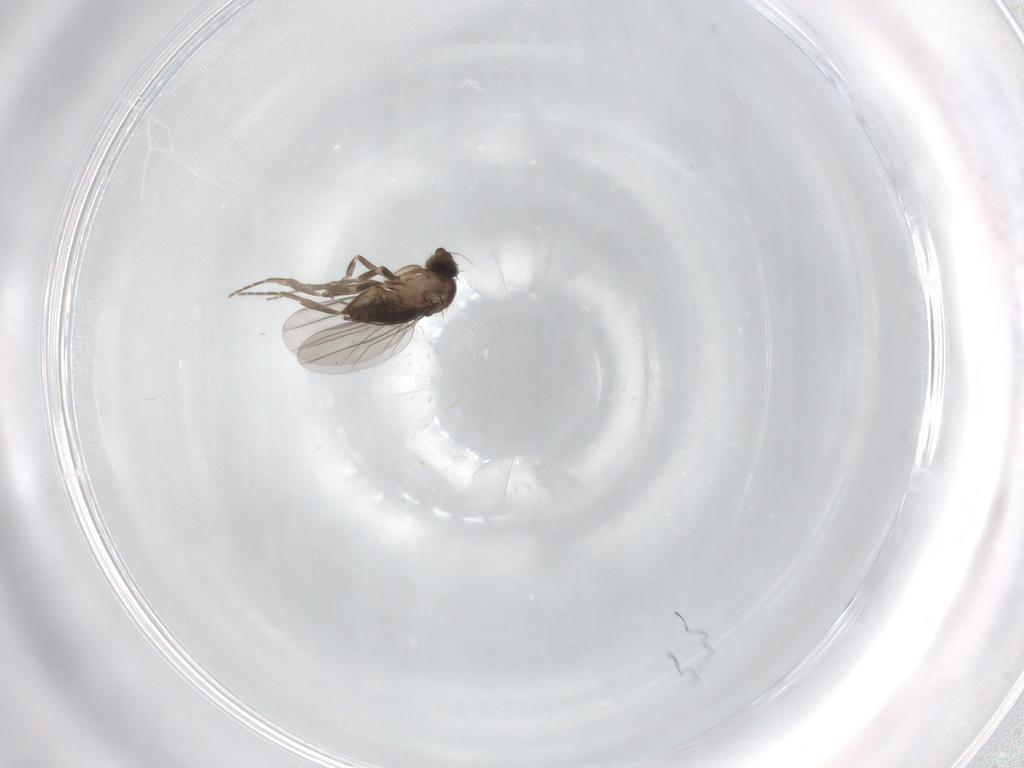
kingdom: Animalia
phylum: Arthropoda
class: Insecta
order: Diptera
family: Phoridae
